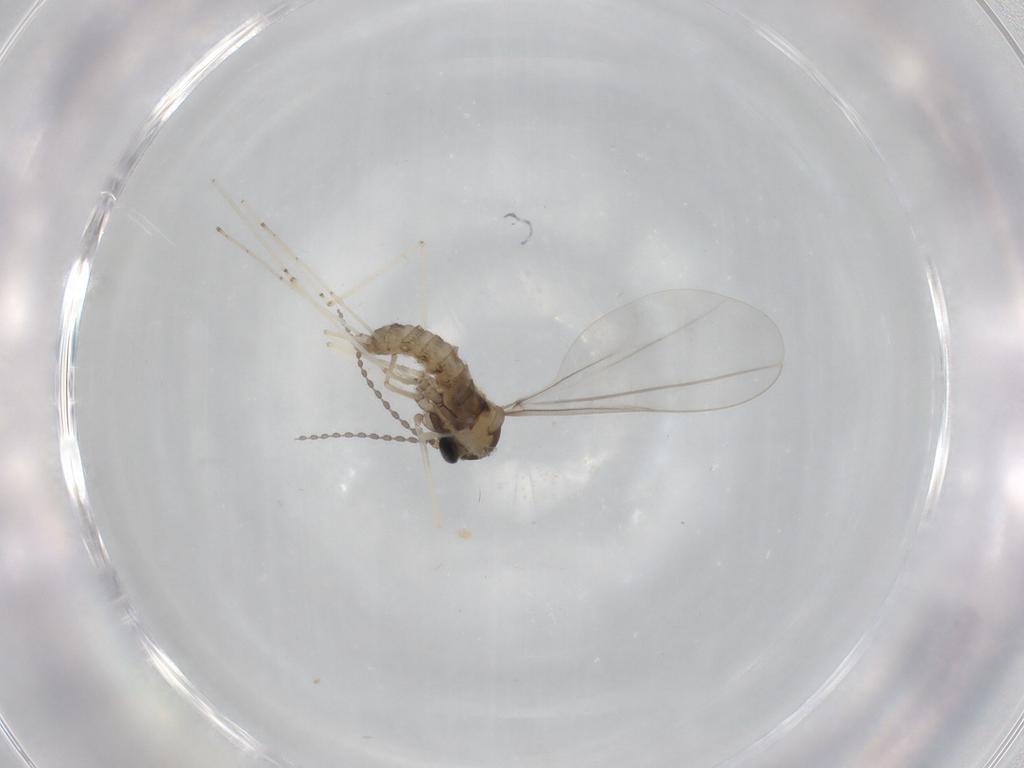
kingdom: Animalia
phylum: Arthropoda
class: Insecta
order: Diptera
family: Cecidomyiidae
